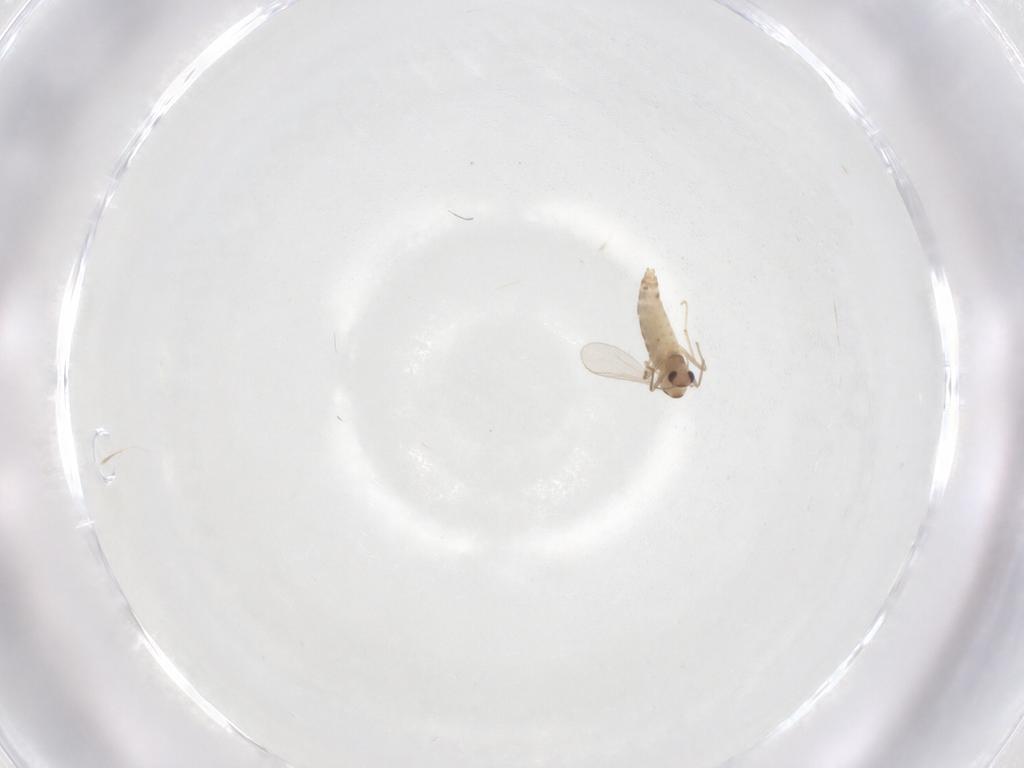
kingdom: Animalia
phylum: Arthropoda
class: Insecta
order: Diptera
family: Chironomidae
